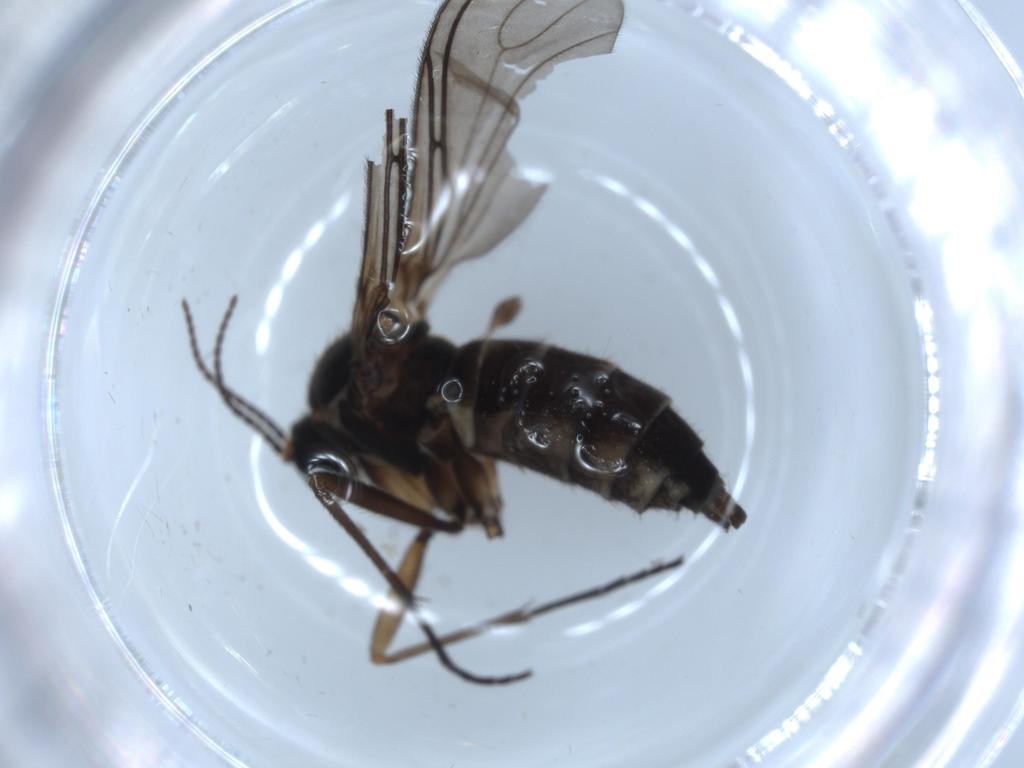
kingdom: Animalia
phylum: Arthropoda
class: Insecta
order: Diptera
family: Sciaridae
